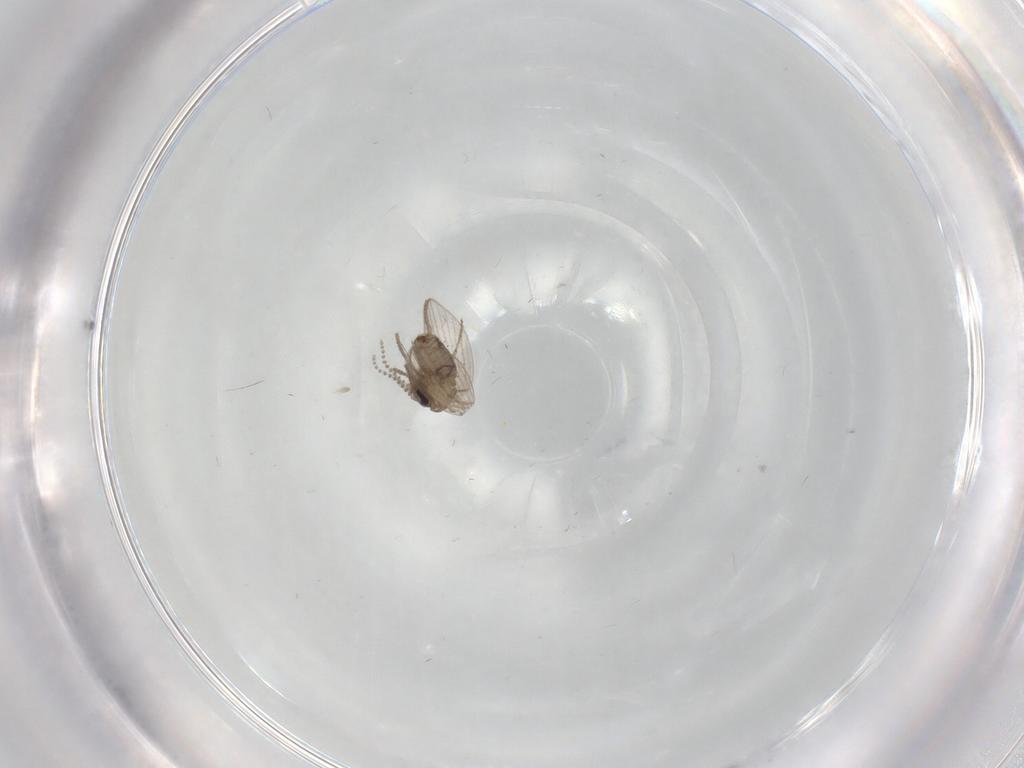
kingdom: Animalia
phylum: Arthropoda
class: Insecta
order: Diptera
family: Psychodidae
